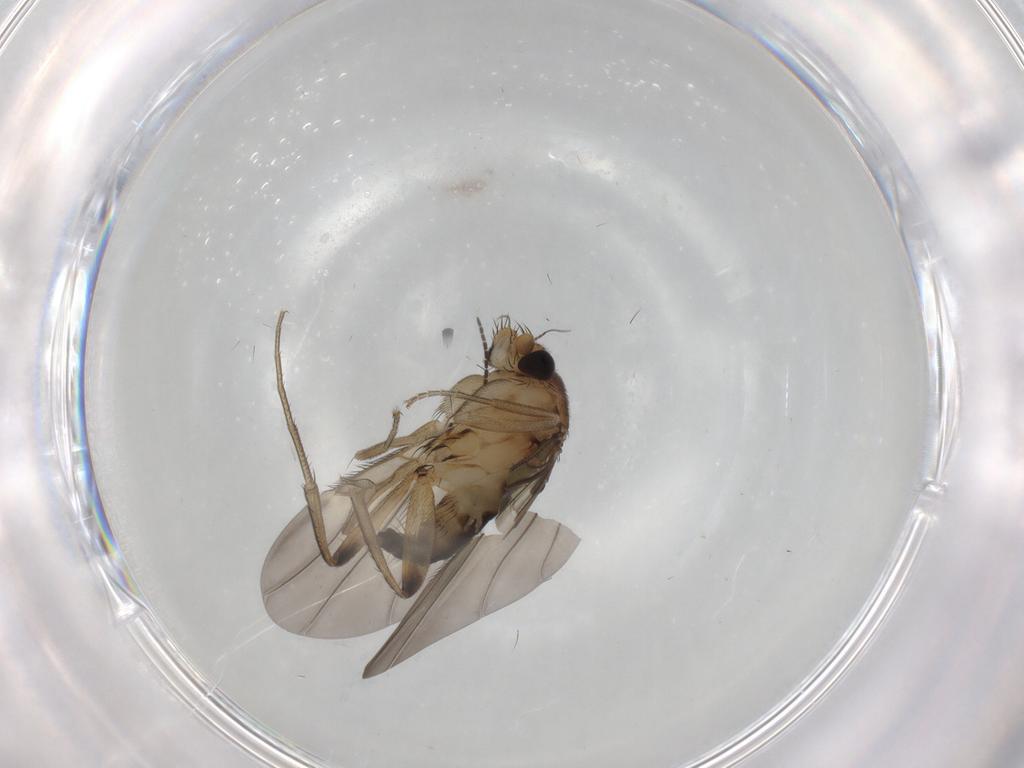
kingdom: Animalia
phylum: Arthropoda
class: Insecta
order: Diptera
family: Phoridae
